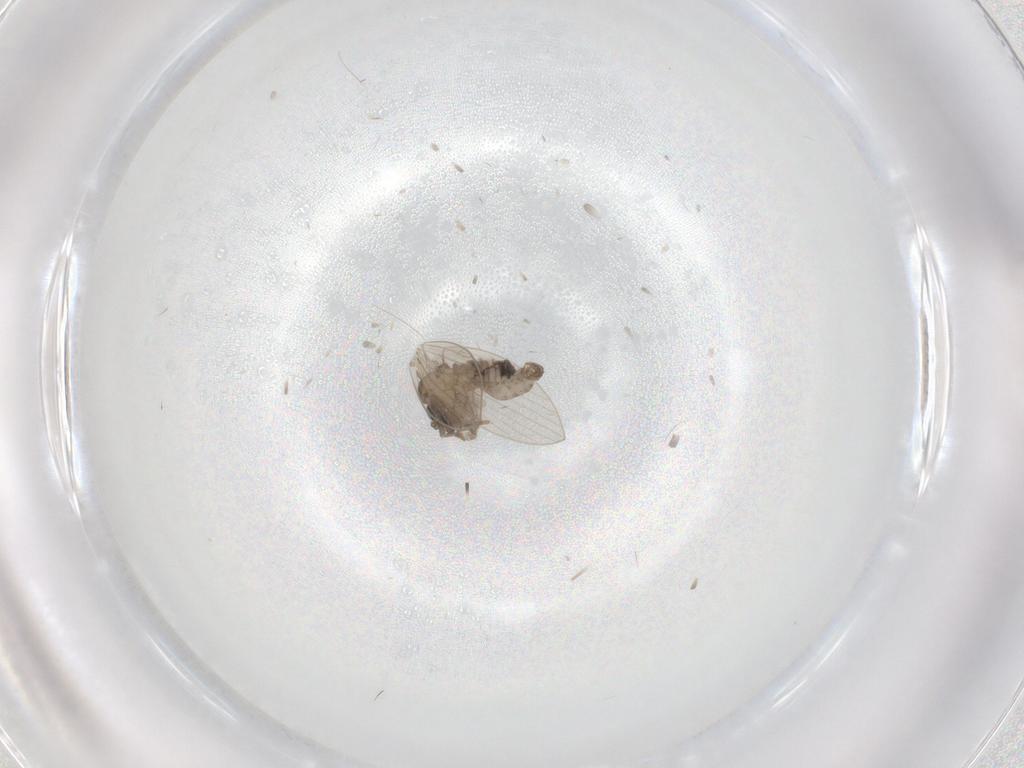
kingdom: Animalia
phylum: Arthropoda
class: Insecta
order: Diptera
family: Psychodidae
